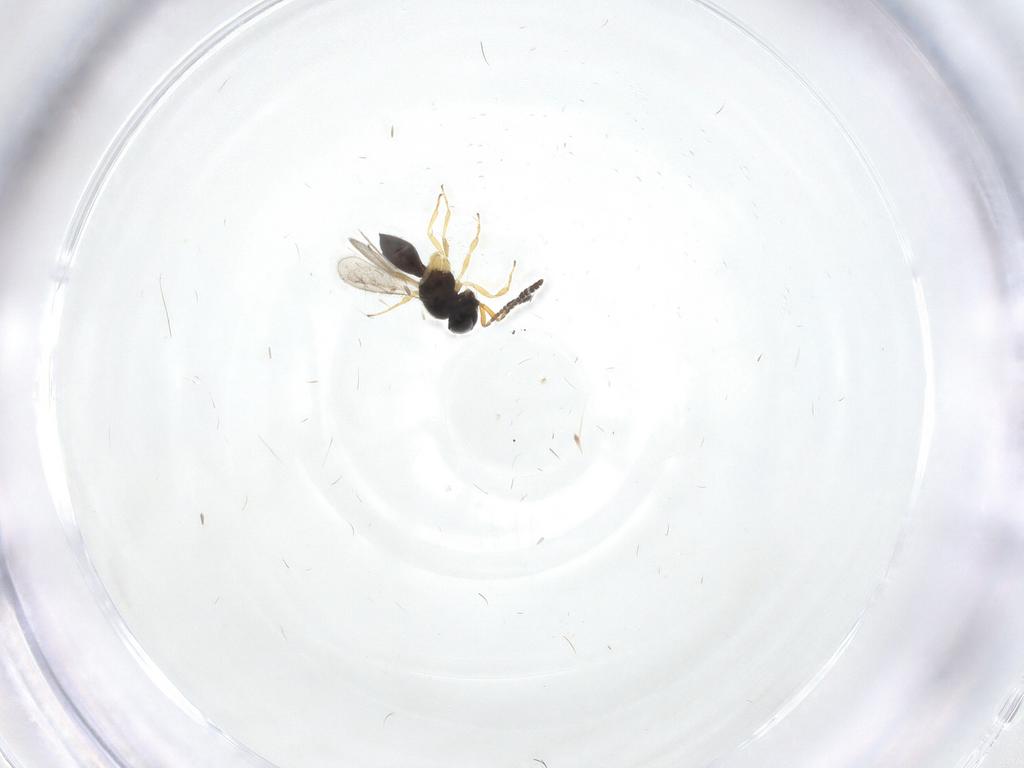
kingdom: Animalia
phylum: Arthropoda
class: Insecta
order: Hymenoptera
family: Scelionidae
